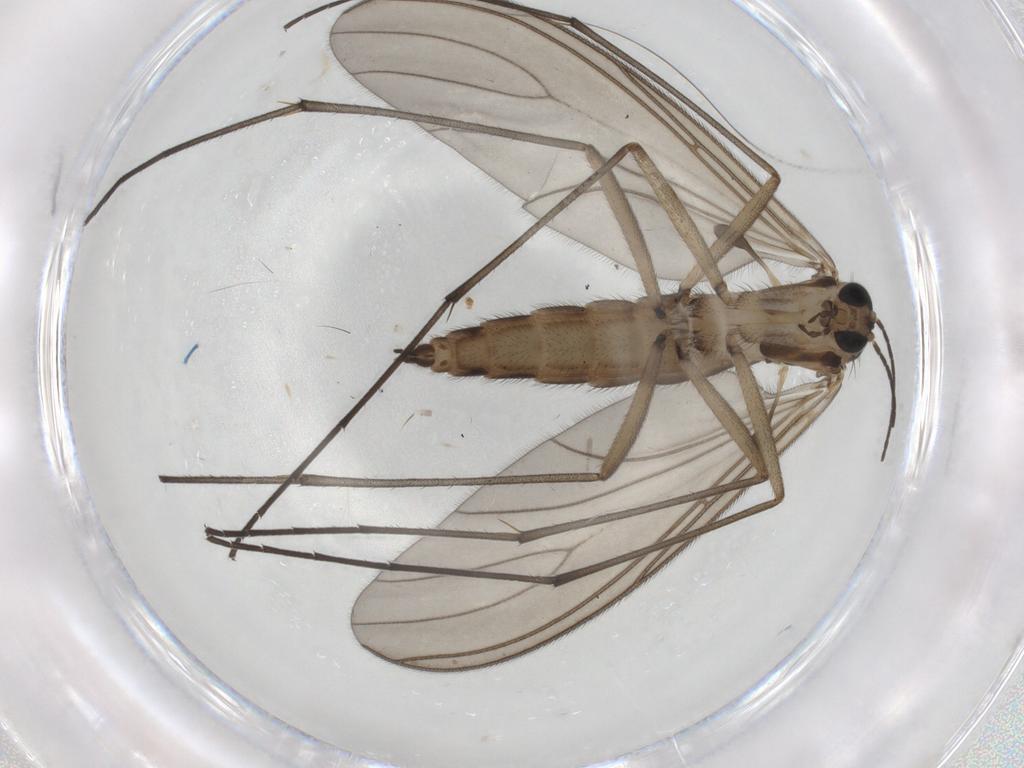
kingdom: Animalia
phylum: Arthropoda
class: Insecta
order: Diptera
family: Sciaridae
